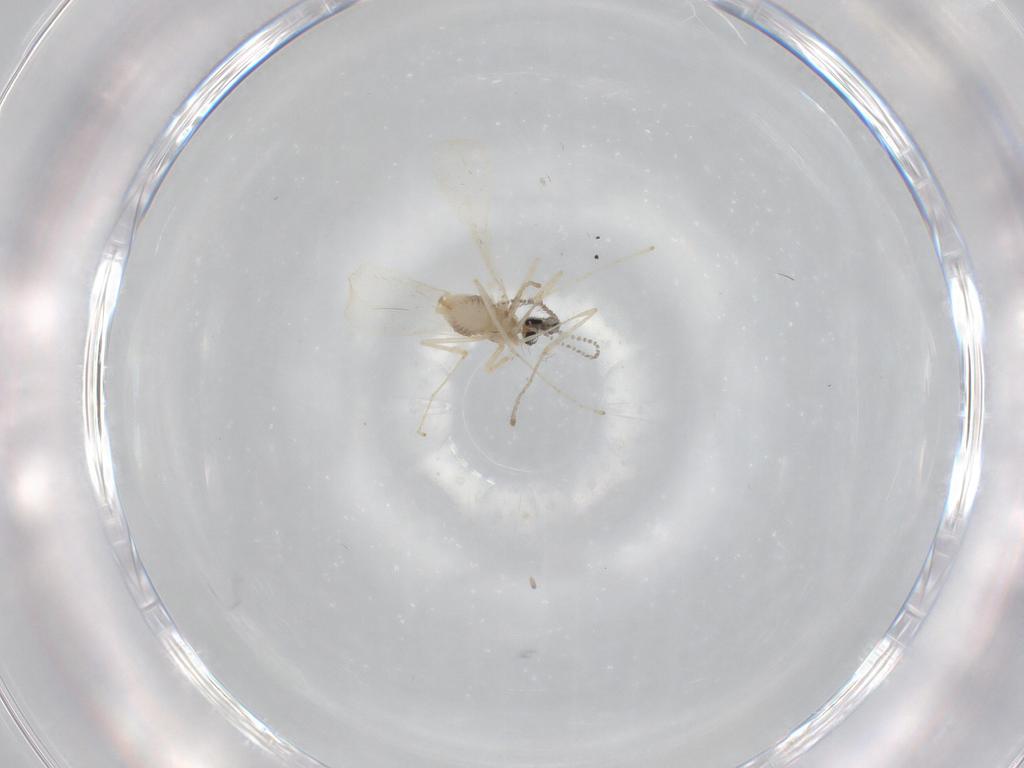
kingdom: Animalia
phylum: Arthropoda
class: Insecta
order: Diptera
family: Cecidomyiidae
